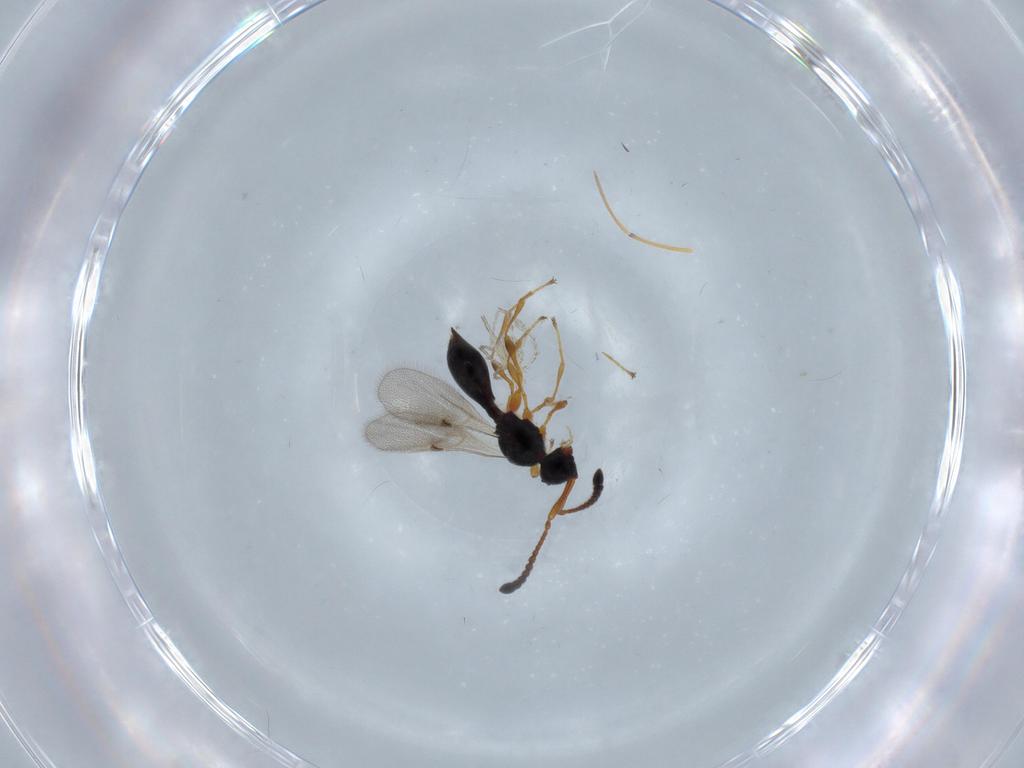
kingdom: Animalia
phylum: Arthropoda
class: Insecta
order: Hymenoptera
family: Diapriidae
